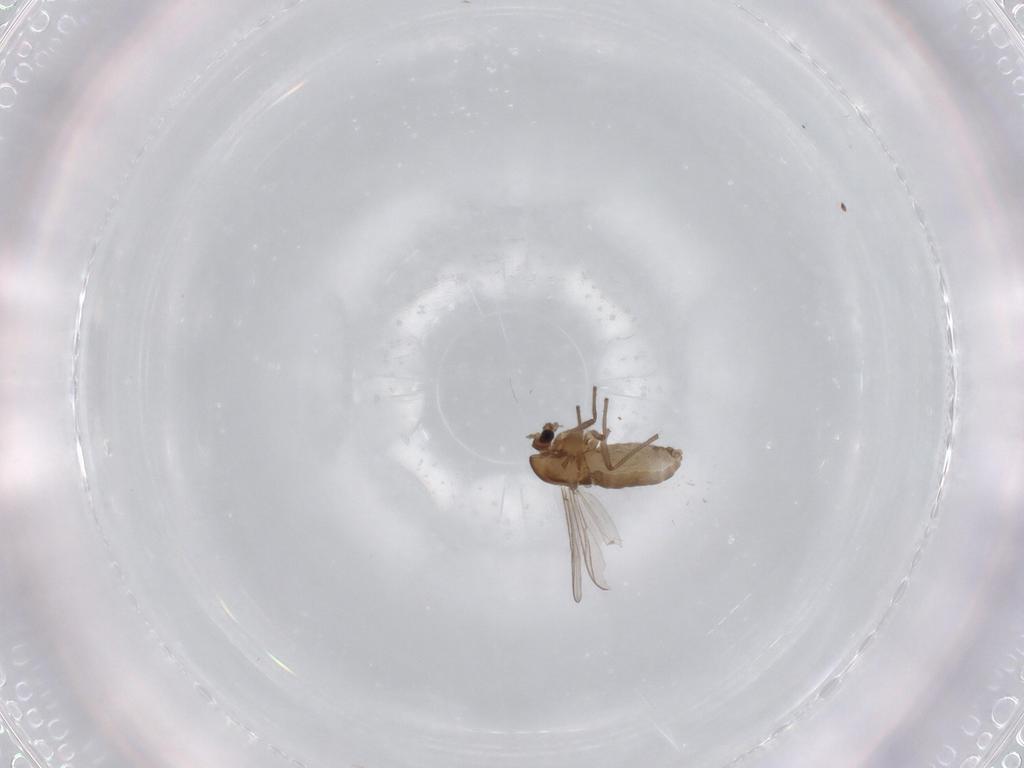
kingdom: Animalia
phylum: Arthropoda
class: Insecta
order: Diptera
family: Chironomidae
